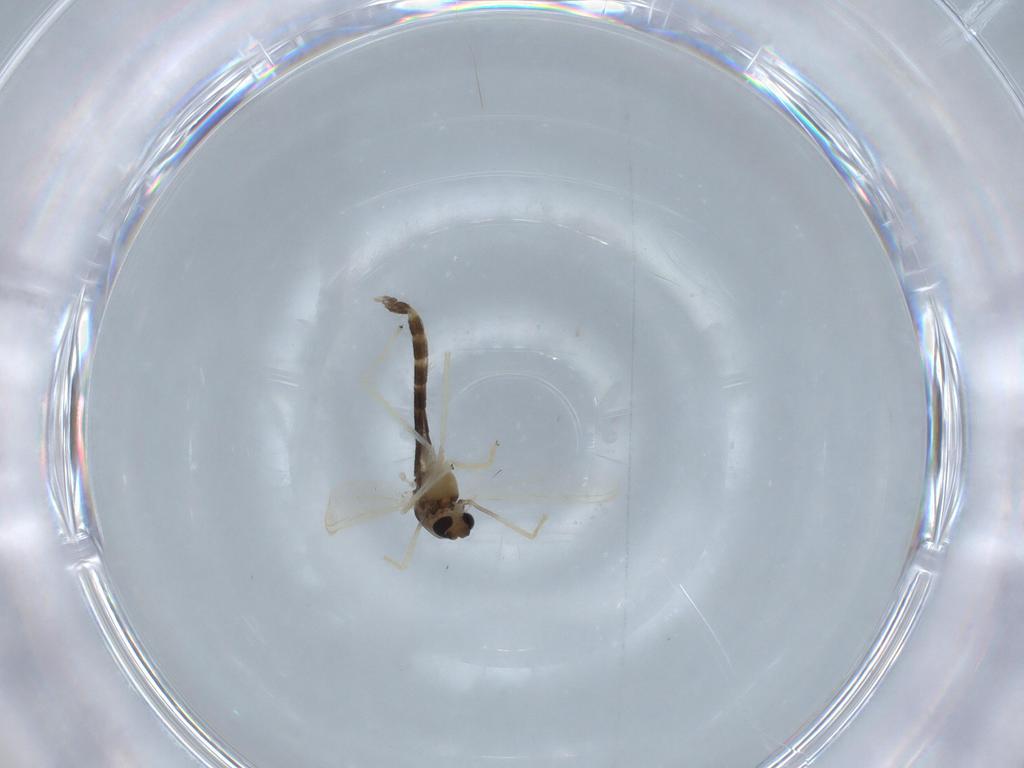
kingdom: Animalia
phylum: Arthropoda
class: Insecta
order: Diptera
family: Chironomidae
